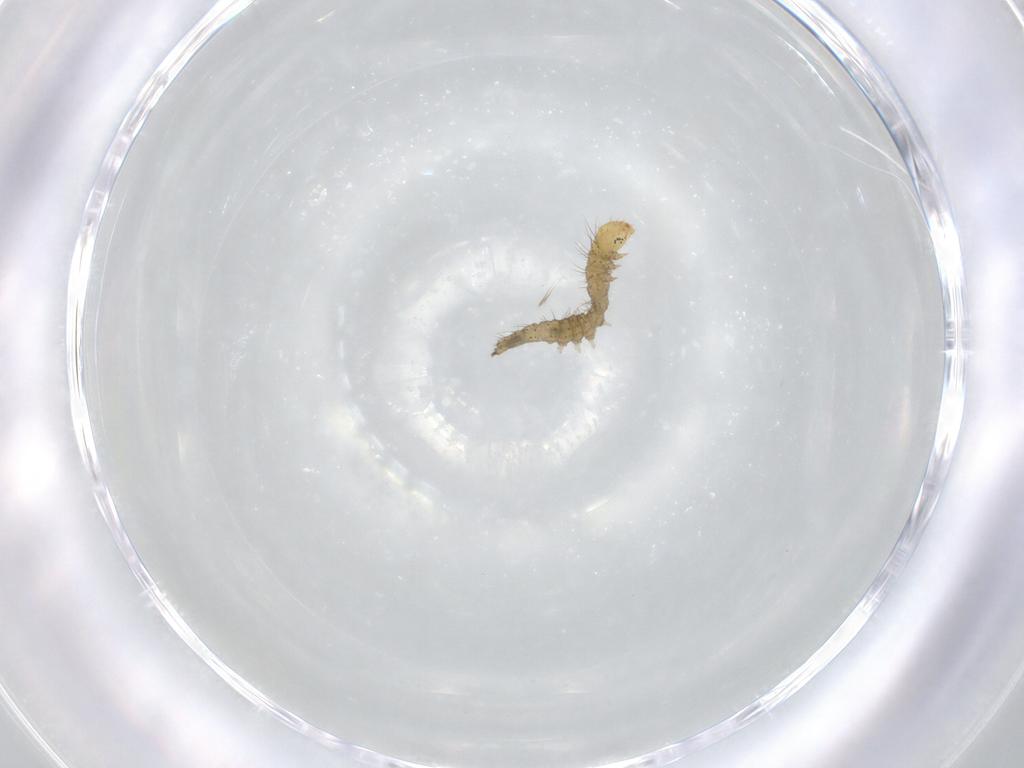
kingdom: Animalia
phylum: Arthropoda
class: Insecta
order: Lepidoptera
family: Immidae
